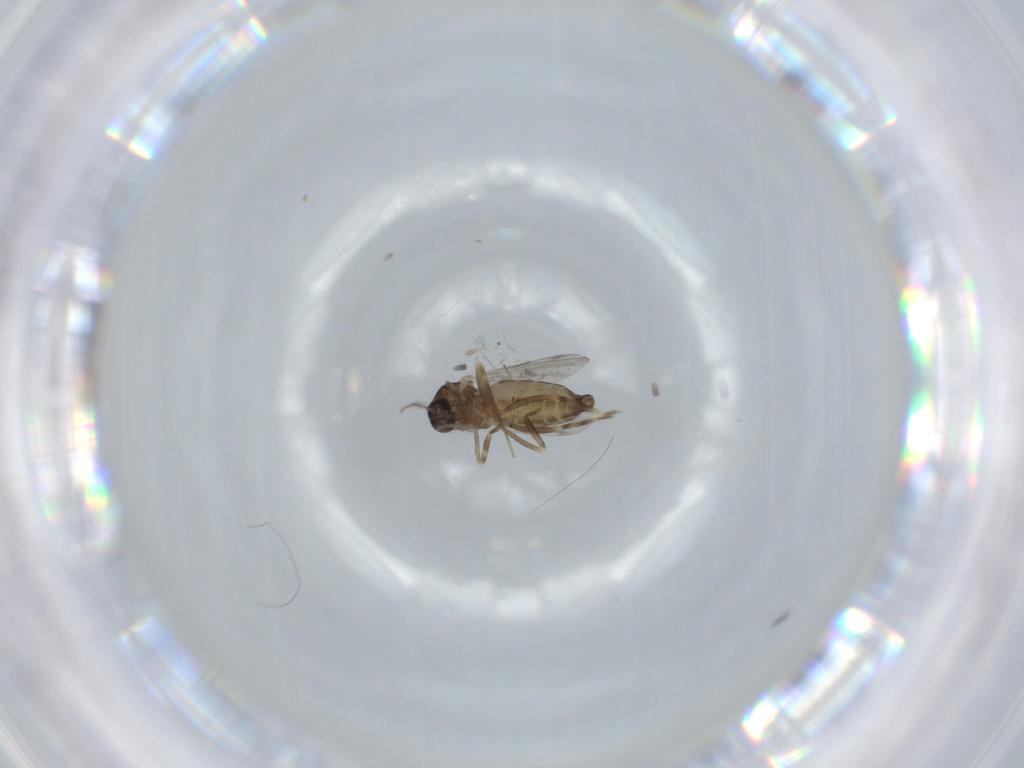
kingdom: Animalia
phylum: Arthropoda
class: Insecta
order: Diptera
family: Ceratopogonidae
